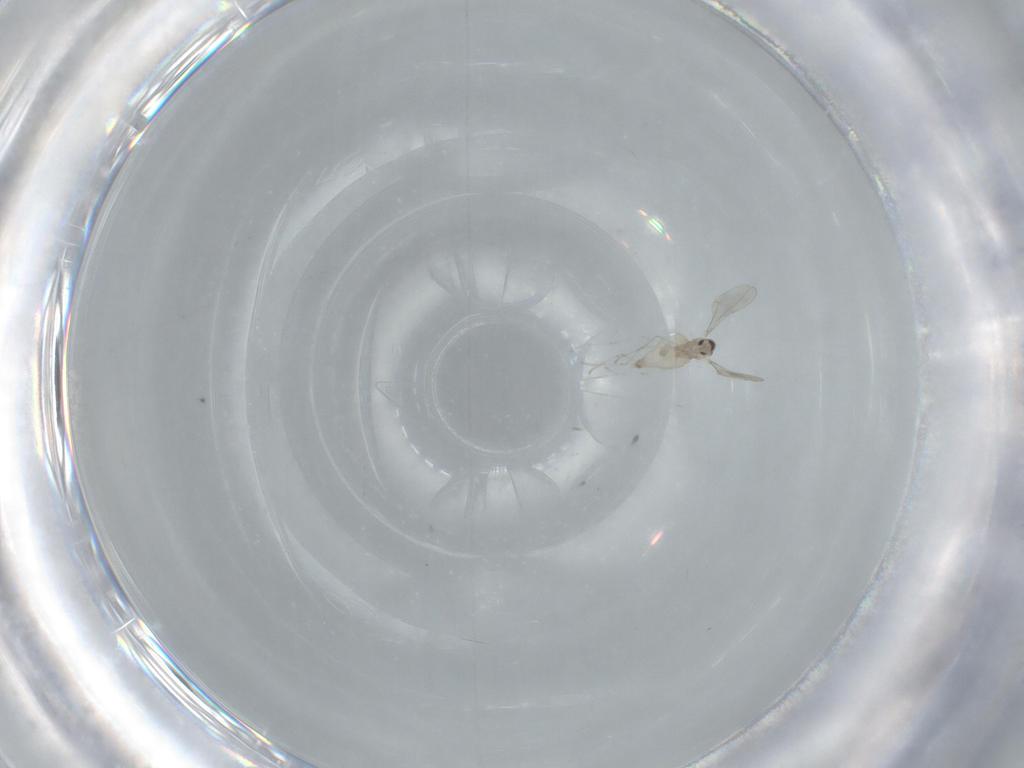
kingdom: Animalia
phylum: Arthropoda
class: Insecta
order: Diptera
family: Cecidomyiidae
